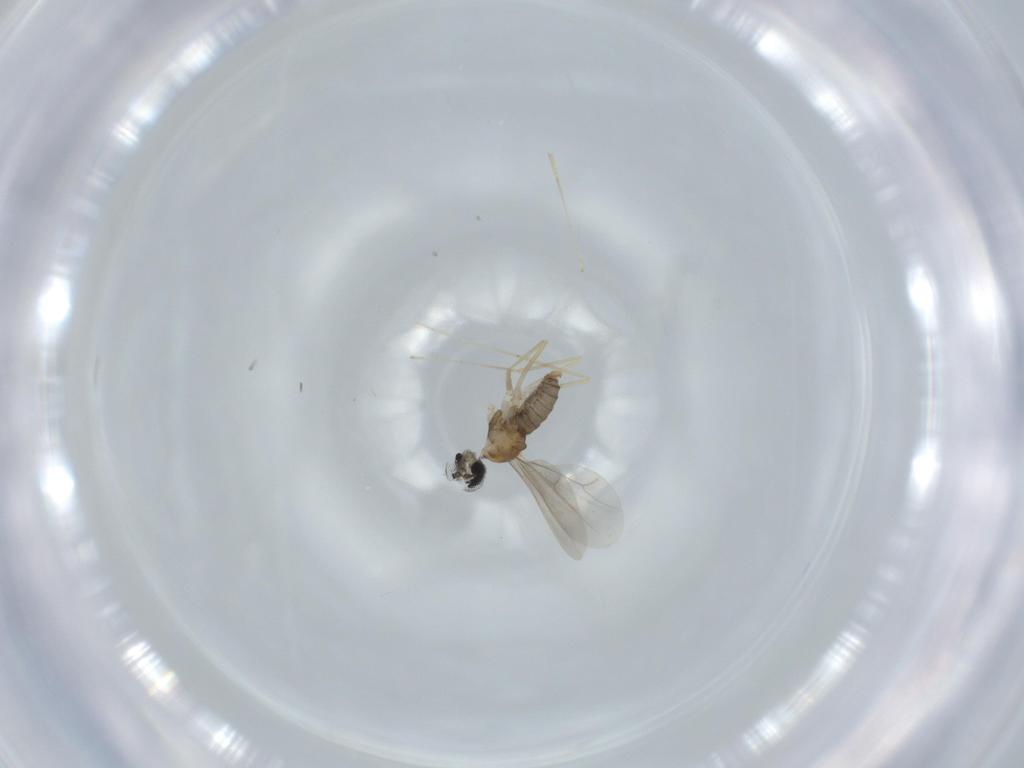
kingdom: Animalia
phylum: Arthropoda
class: Insecta
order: Diptera
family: Cecidomyiidae
